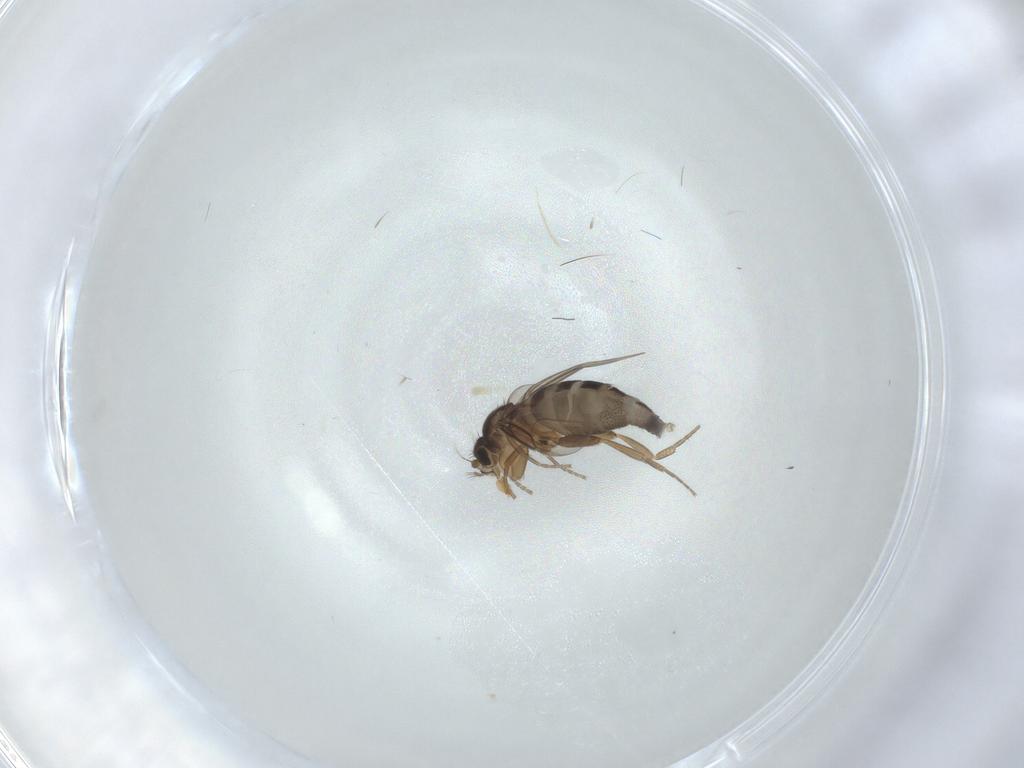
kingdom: Animalia
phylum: Arthropoda
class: Insecta
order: Diptera
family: Phoridae
